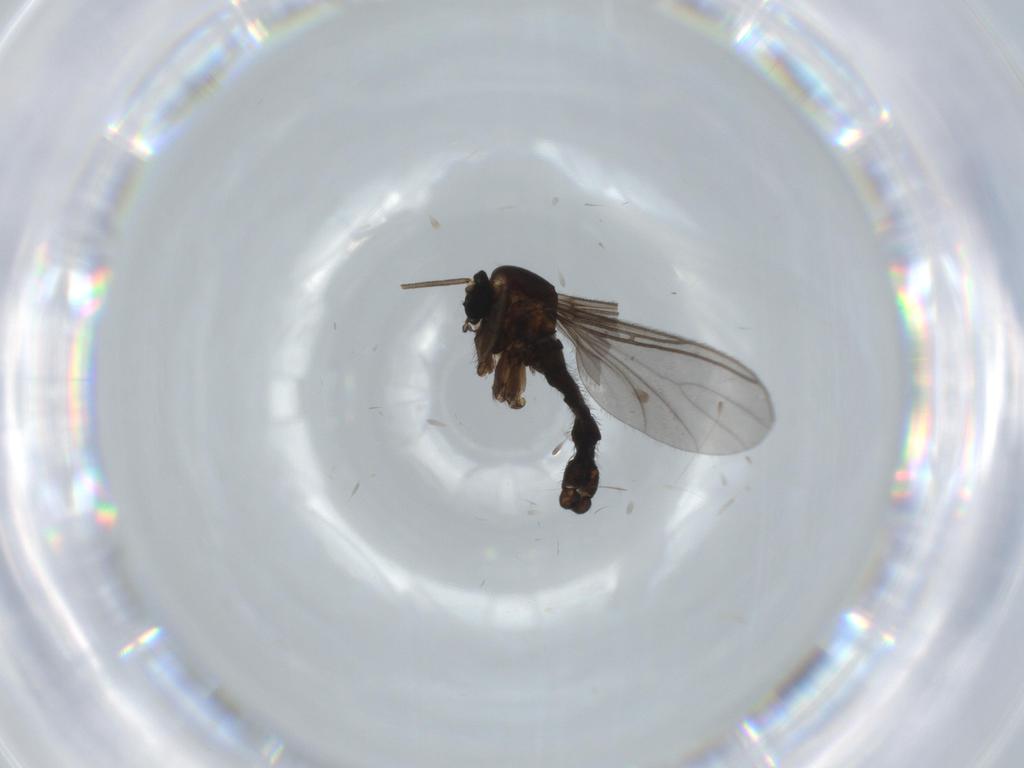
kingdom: Animalia
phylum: Arthropoda
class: Insecta
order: Diptera
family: Sciaridae
